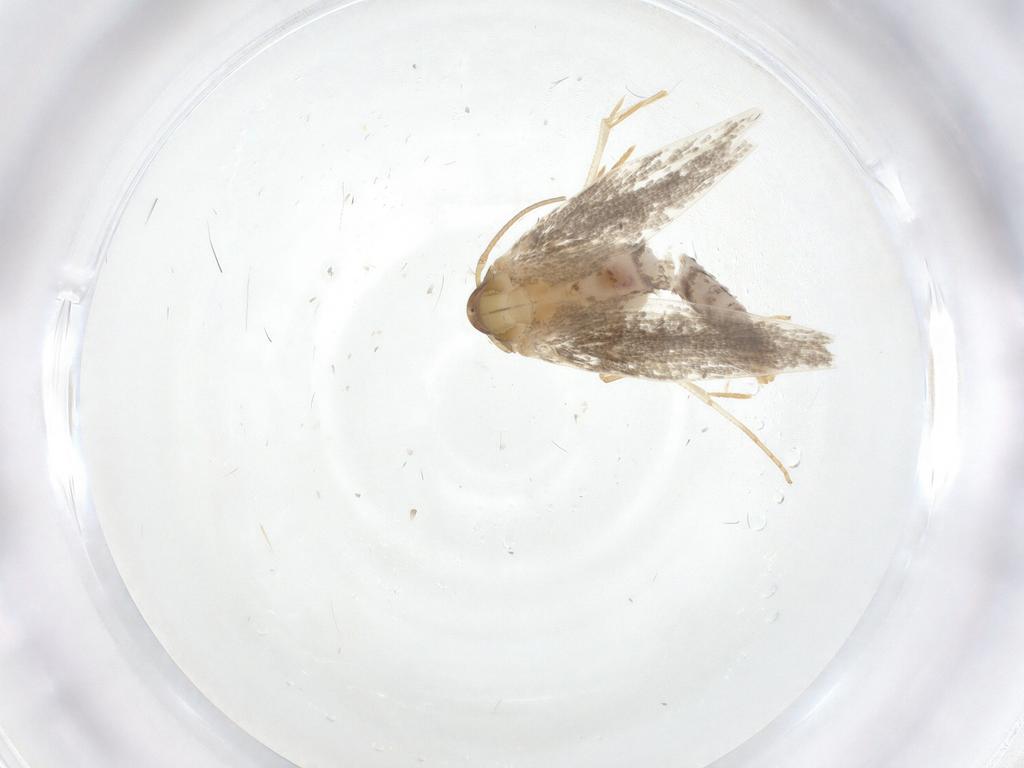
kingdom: Animalia
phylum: Arthropoda
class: Insecta
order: Lepidoptera
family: Oecophoridae
